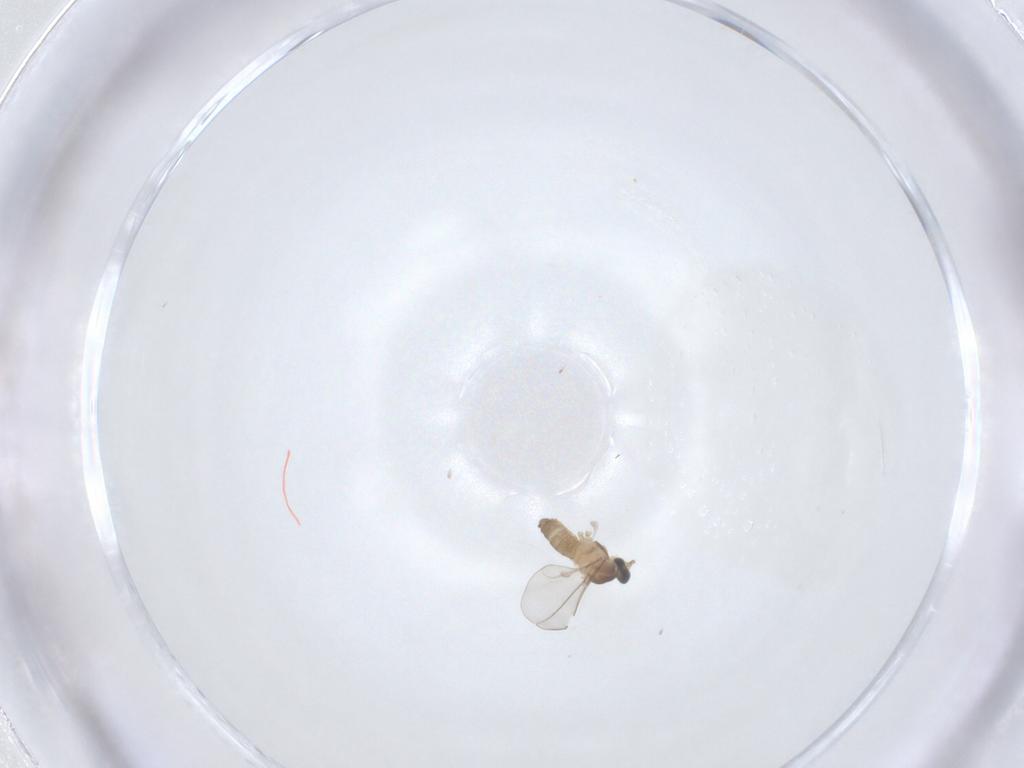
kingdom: Animalia
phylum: Arthropoda
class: Insecta
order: Diptera
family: Cecidomyiidae
